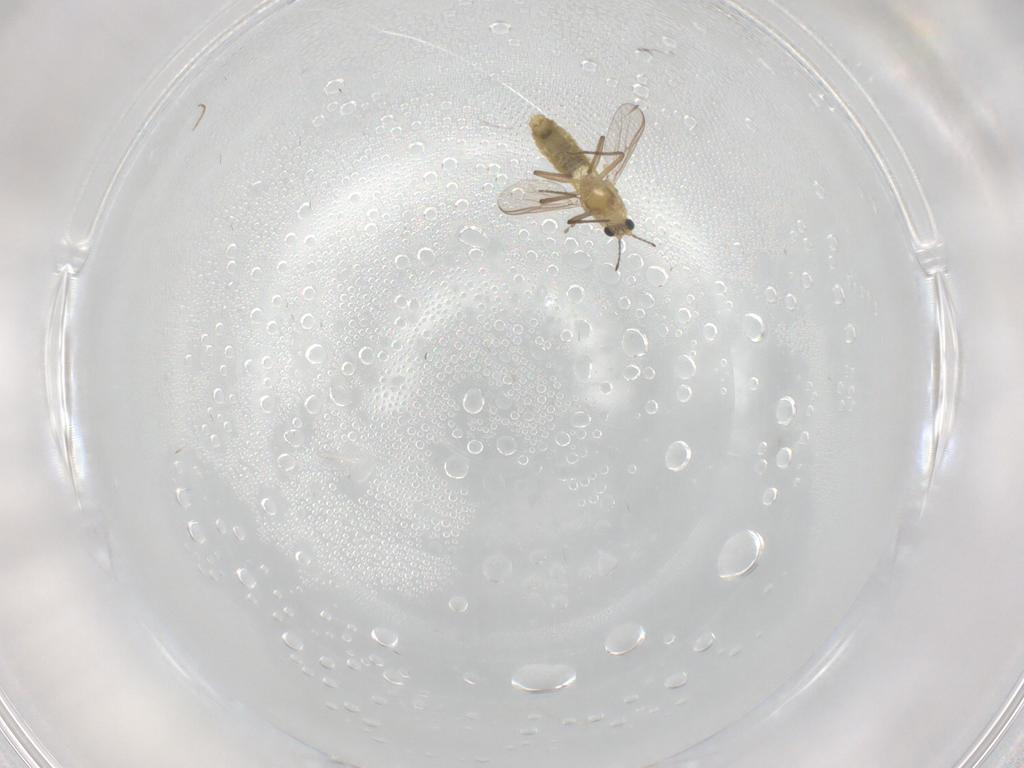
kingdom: Animalia
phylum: Arthropoda
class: Insecta
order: Diptera
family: Chironomidae
